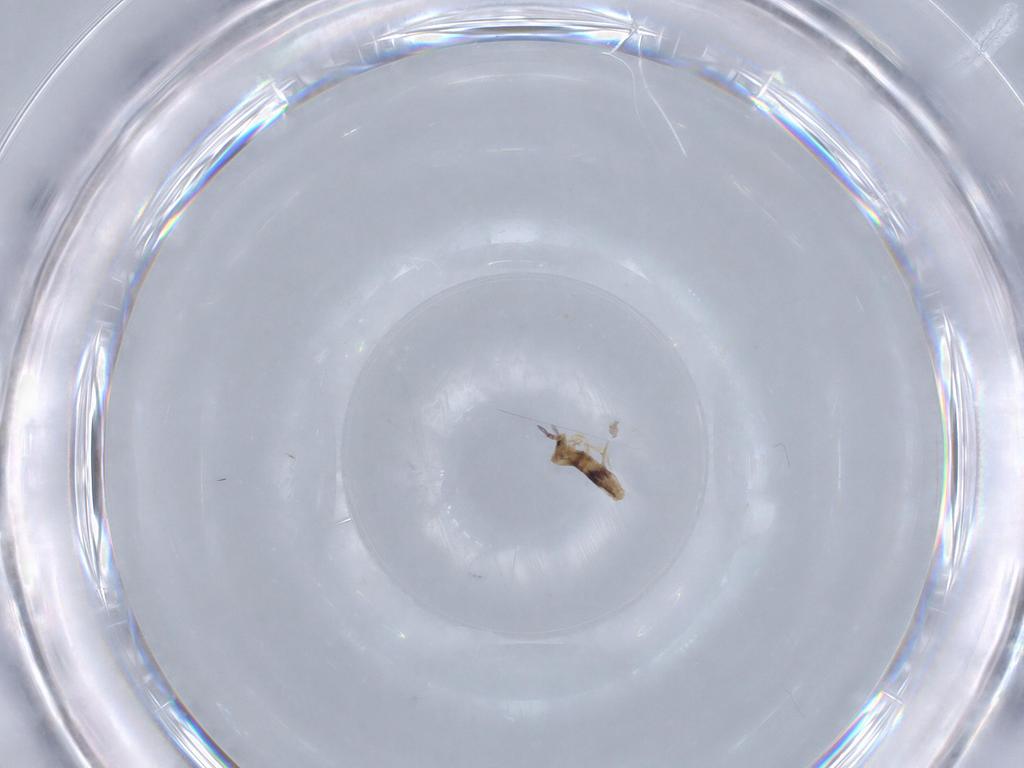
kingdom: Animalia
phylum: Arthropoda
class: Collembola
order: Entomobryomorpha
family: Entomobryidae
